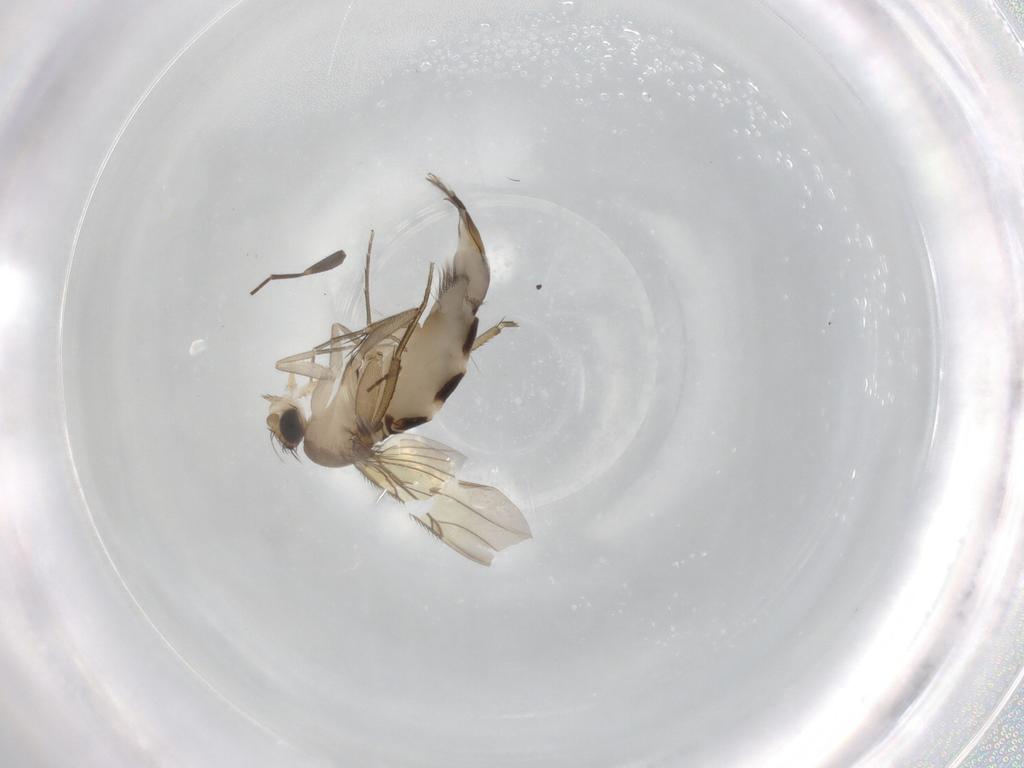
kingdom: Animalia
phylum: Arthropoda
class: Insecta
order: Diptera
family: Phoridae
